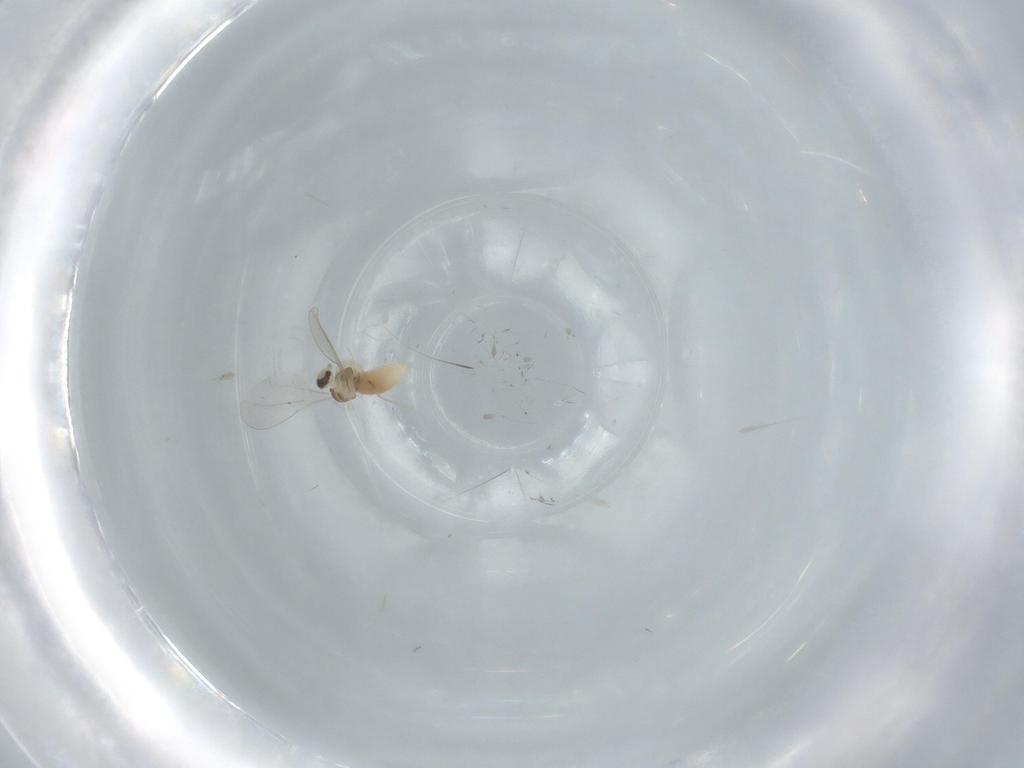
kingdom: Animalia
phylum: Arthropoda
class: Insecta
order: Diptera
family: Cecidomyiidae
